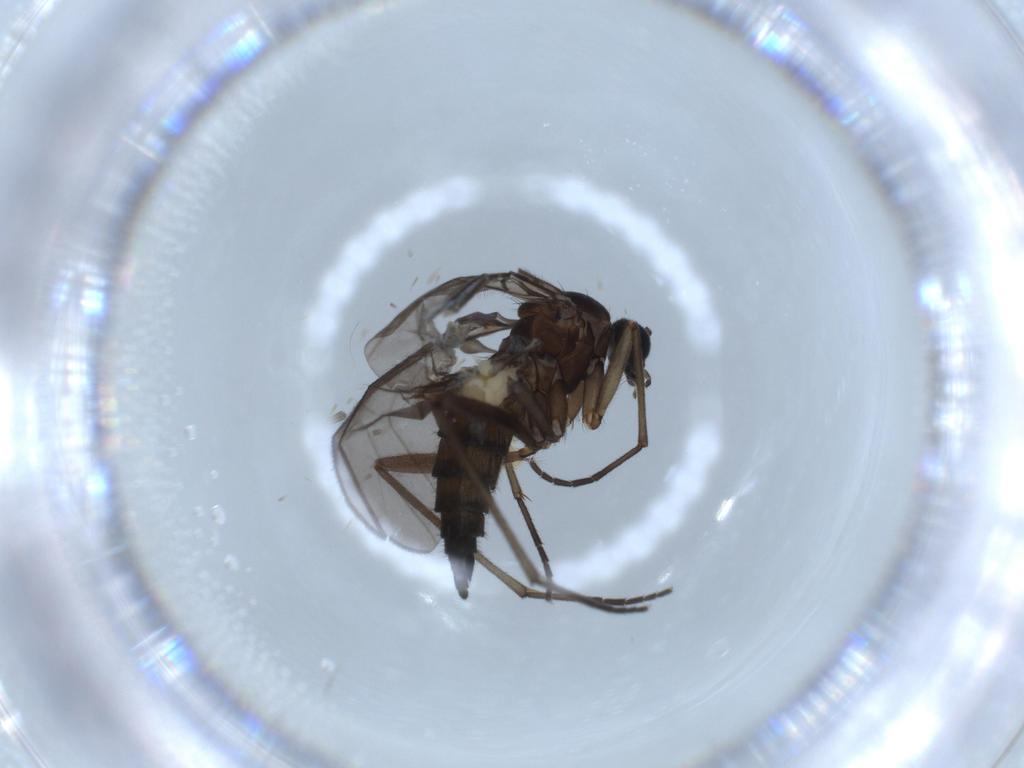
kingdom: Animalia
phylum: Arthropoda
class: Insecta
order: Diptera
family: Sciaridae
